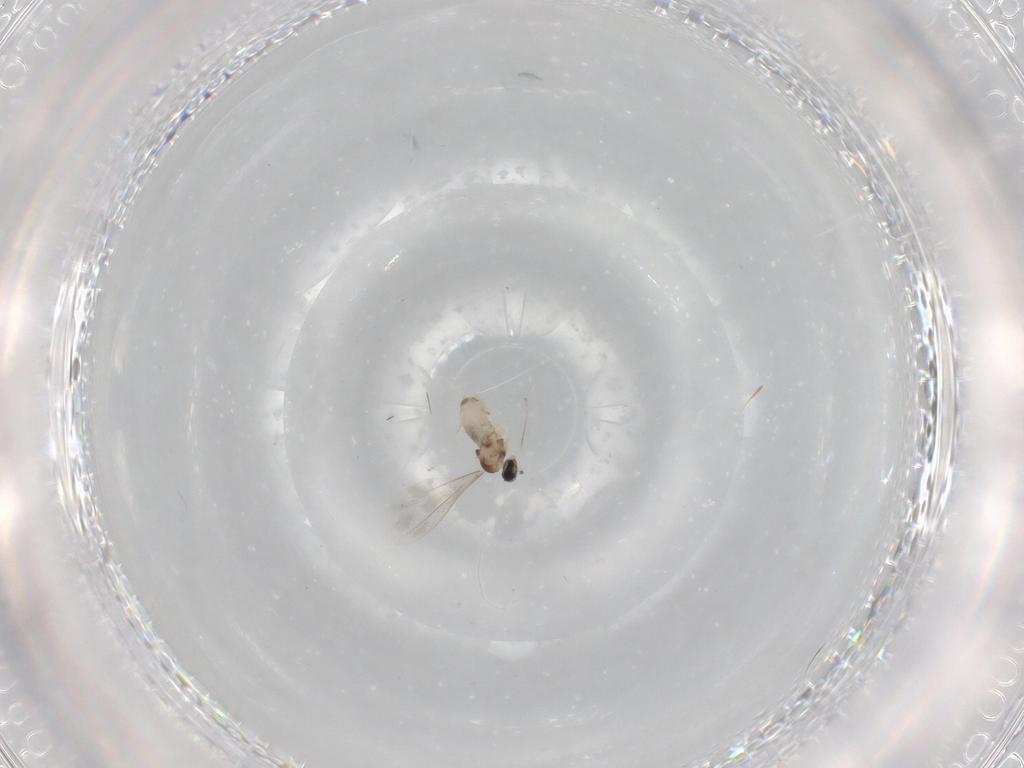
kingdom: Animalia
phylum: Arthropoda
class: Insecta
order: Diptera
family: Cecidomyiidae
